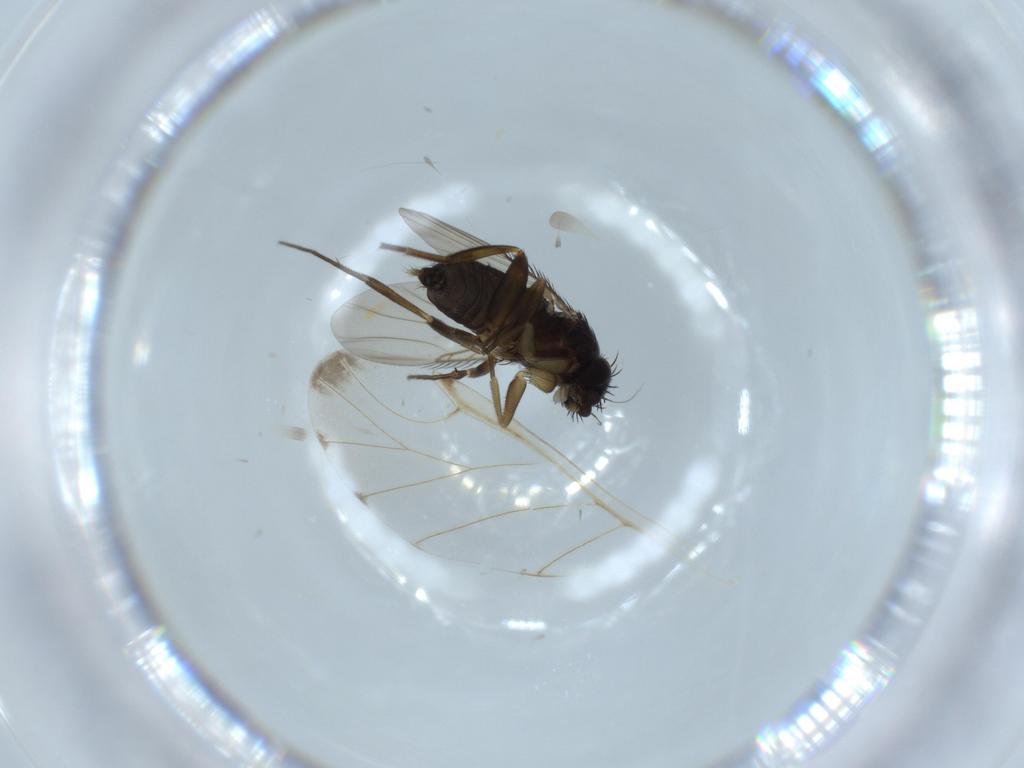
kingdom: Animalia
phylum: Arthropoda
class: Insecta
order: Diptera
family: Phoridae
